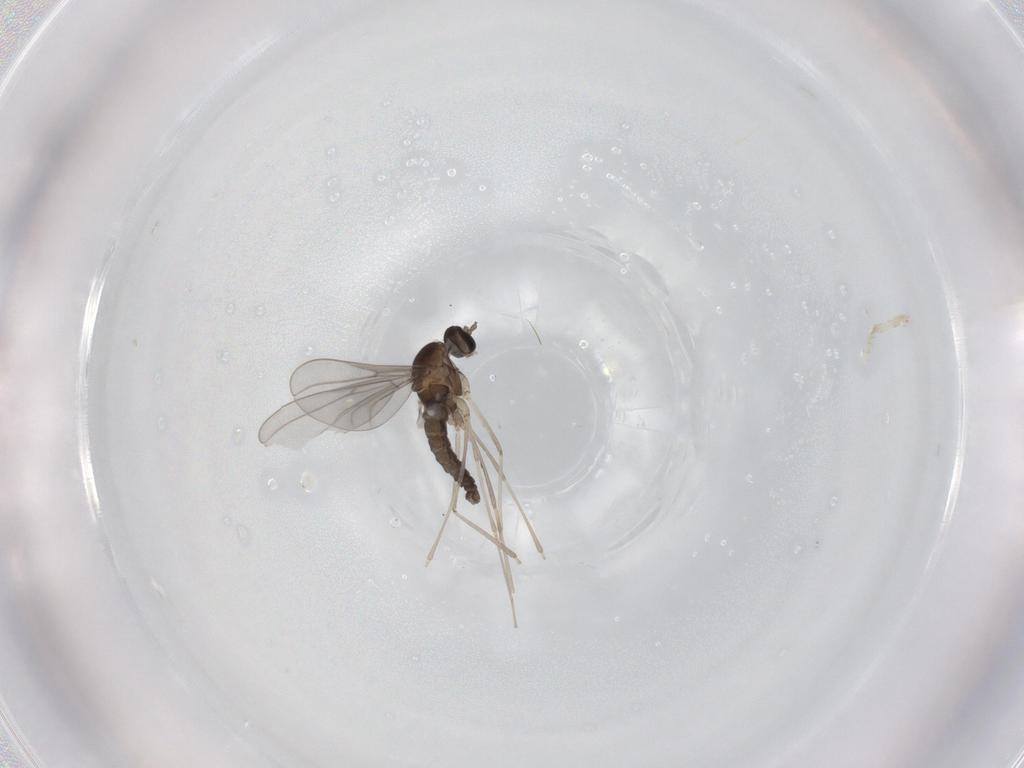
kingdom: Animalia
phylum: Arthropoda
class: Insecta
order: Diptera
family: Cecidomyiidae
